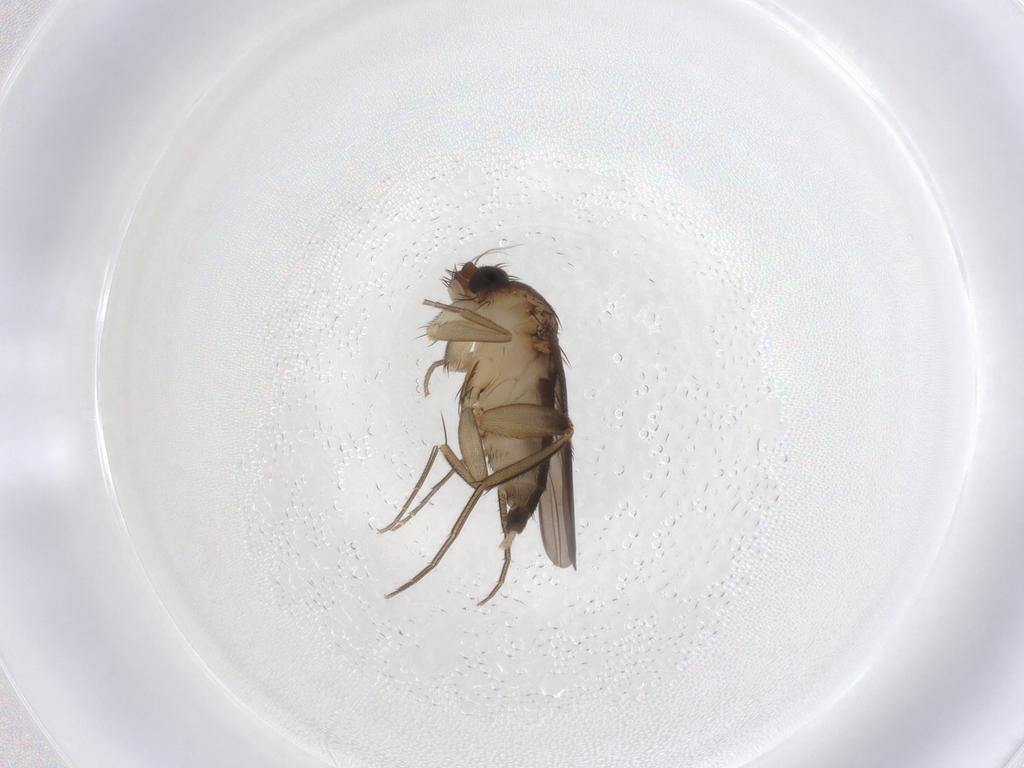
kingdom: Animalia
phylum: Arthropoda
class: Insecta
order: Diptera
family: Phoridae
